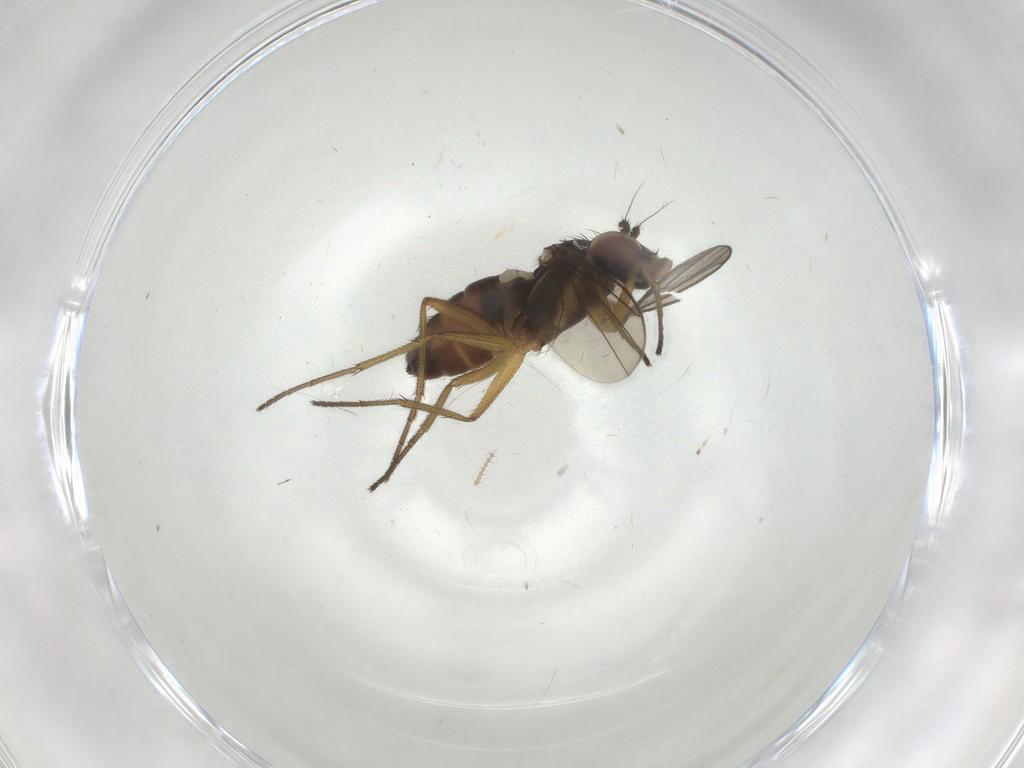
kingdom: Animalia
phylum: Arthropoda
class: Insecta
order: Diptera
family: Dolichopodidae
